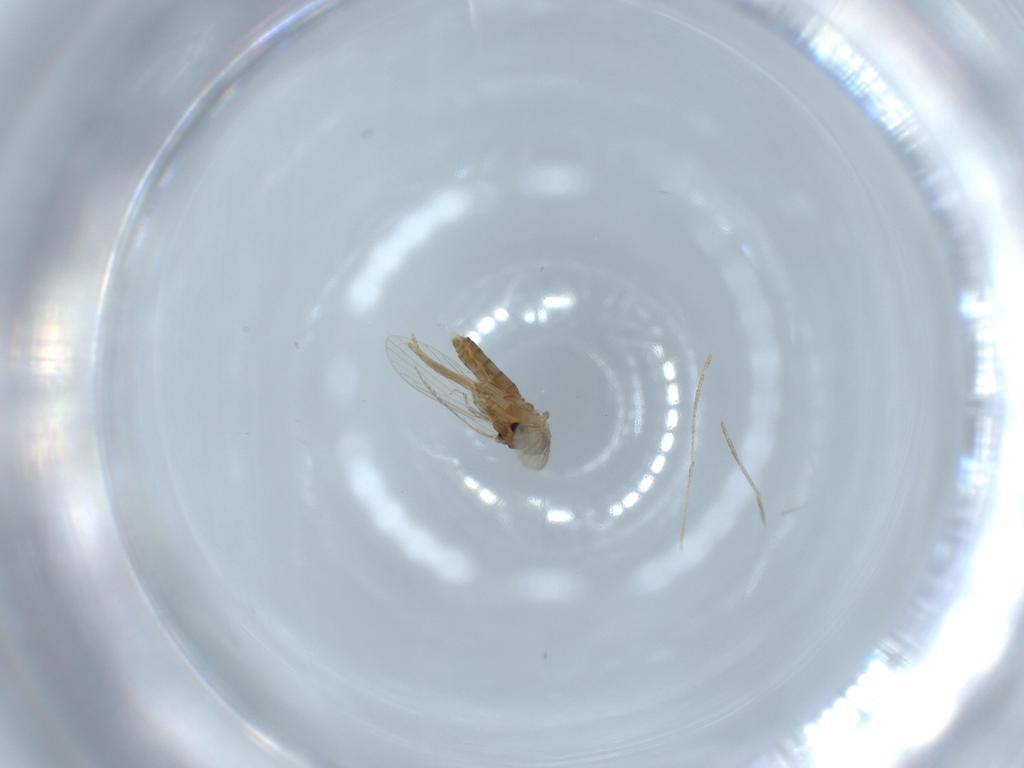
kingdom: Animalia
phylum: Arthropoda
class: Insecta
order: Diptera
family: Psychodidae
